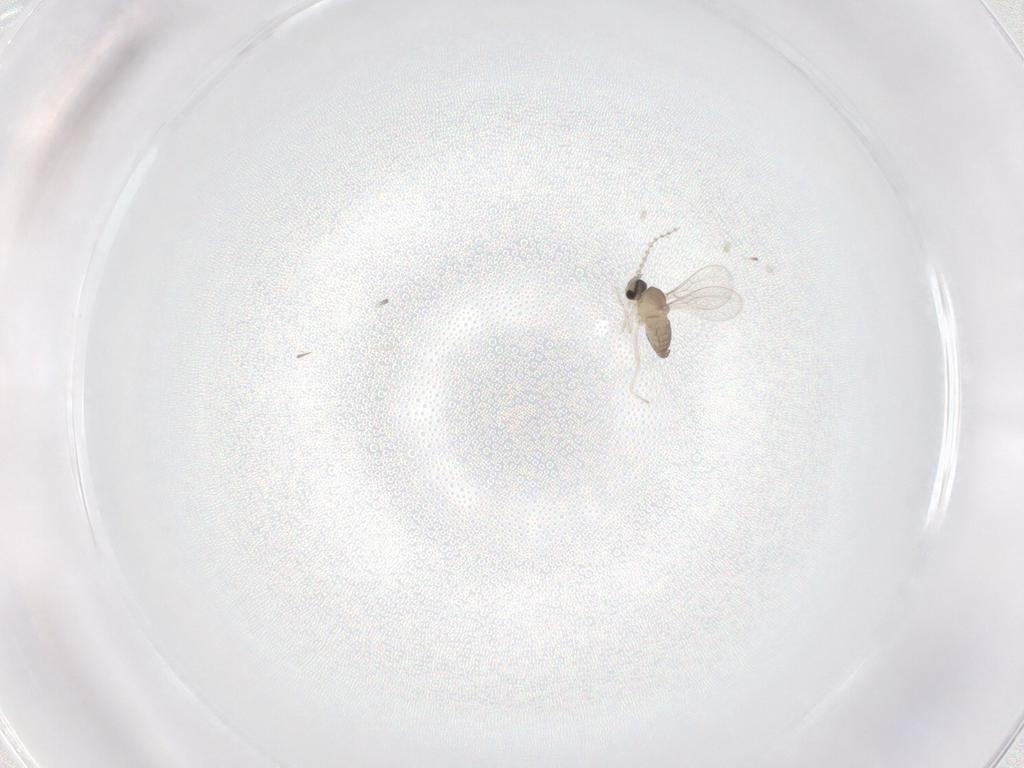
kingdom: Animalia
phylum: Arthropoda
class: Insecta
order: Diptera
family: Cecidomyiidae
